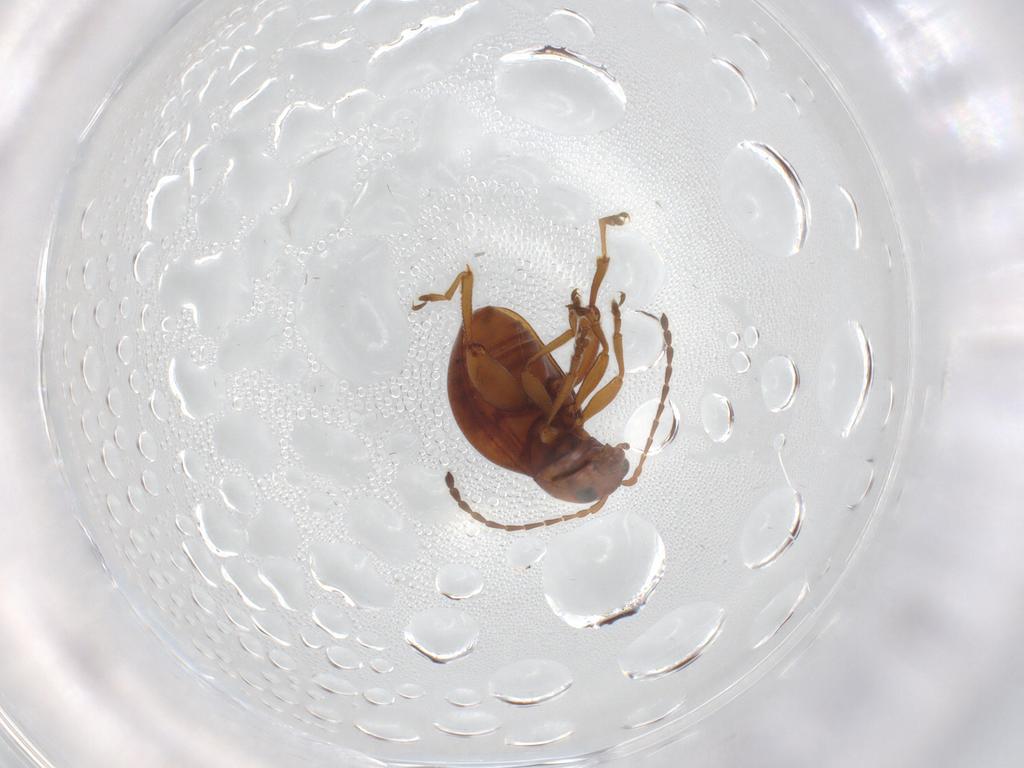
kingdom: Animalia
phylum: Arthropoda
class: Insecta
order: Coleoptera
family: Chrysomelidae
